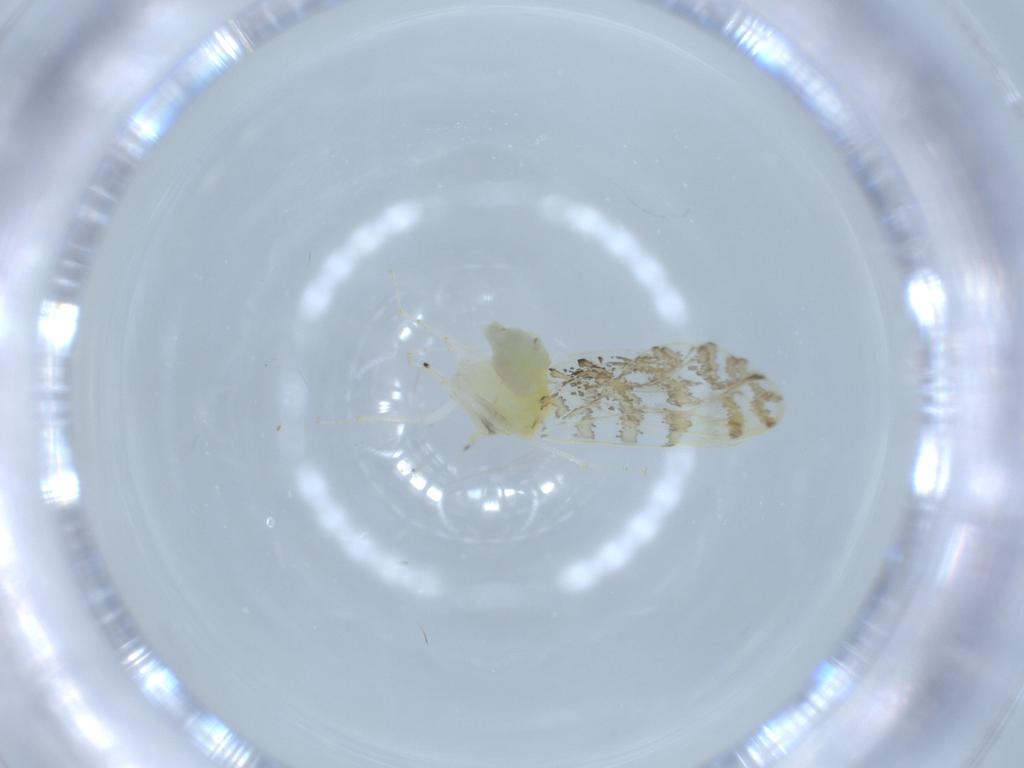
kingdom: Animalia
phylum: Arthropoda
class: Insecta
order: Hemiptera
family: Aleyrodidae
